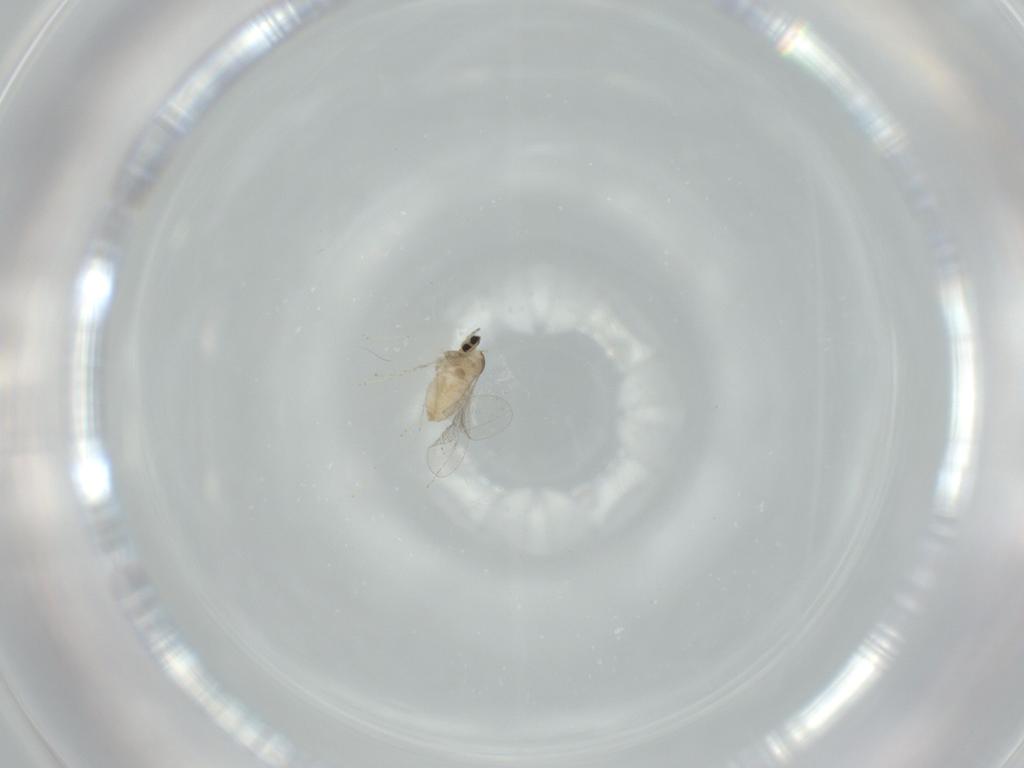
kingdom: Animalia
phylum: Arthropoda
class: Insecta
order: Diptera
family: Cecidomyiidae
